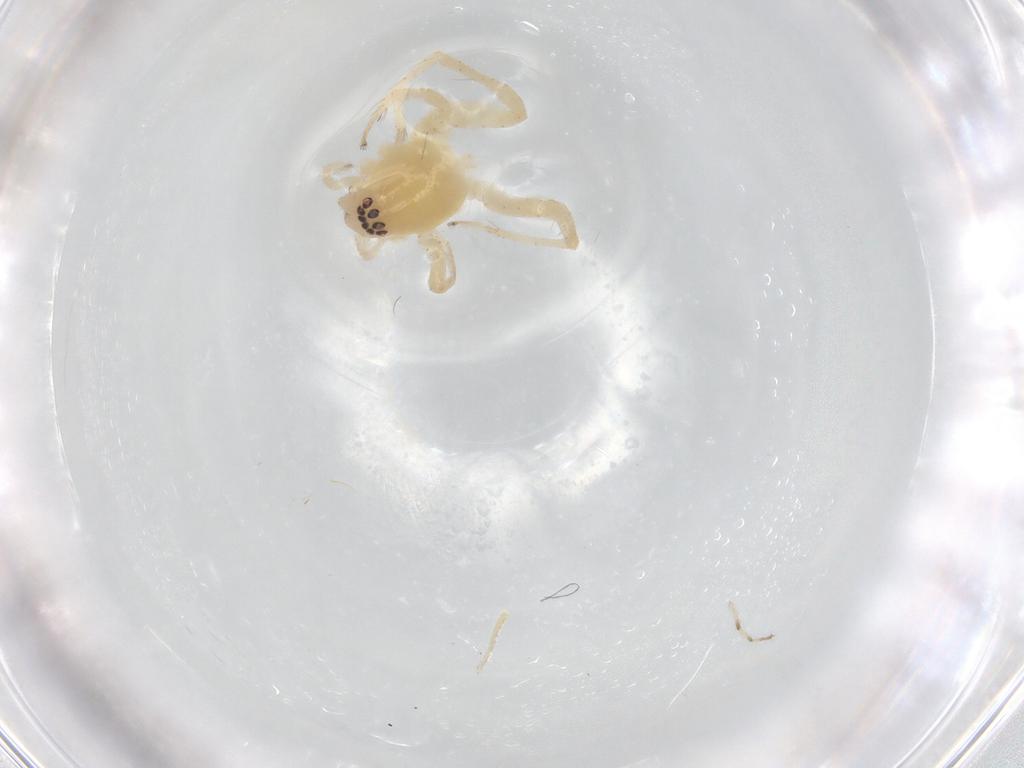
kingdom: Animalia
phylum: Arthropoda
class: Arachnida
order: Araneae
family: Anyphaenidae
